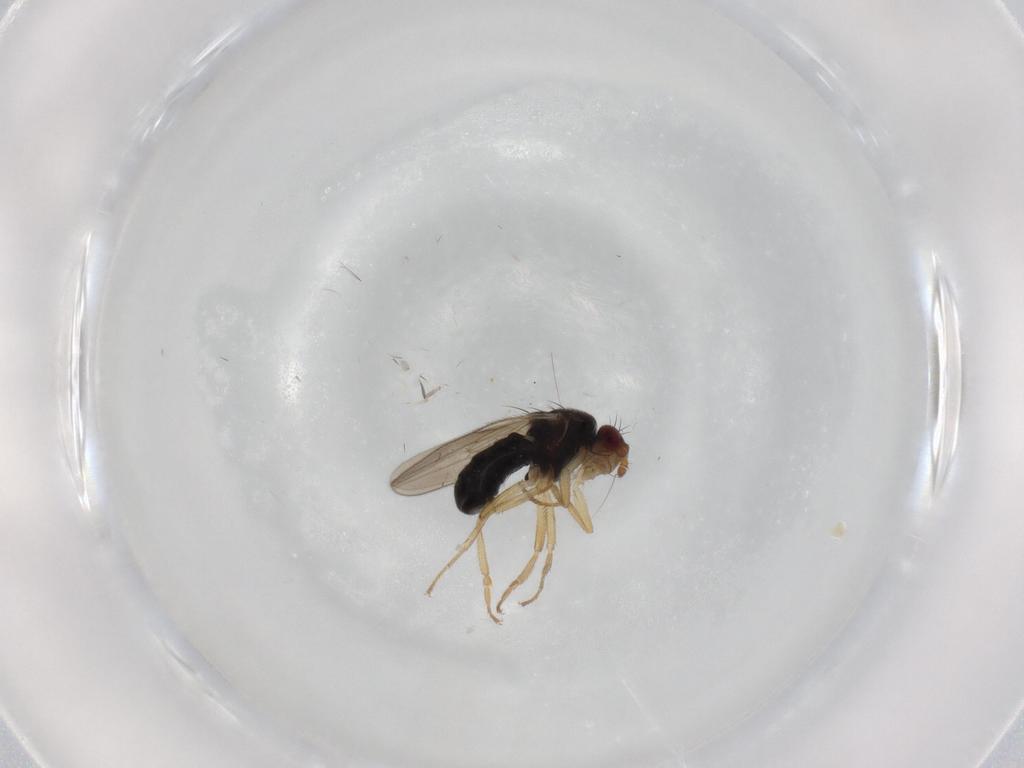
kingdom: Animalia
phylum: Arthropoda
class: Insecta
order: Diptera
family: Sphaeroceridae
